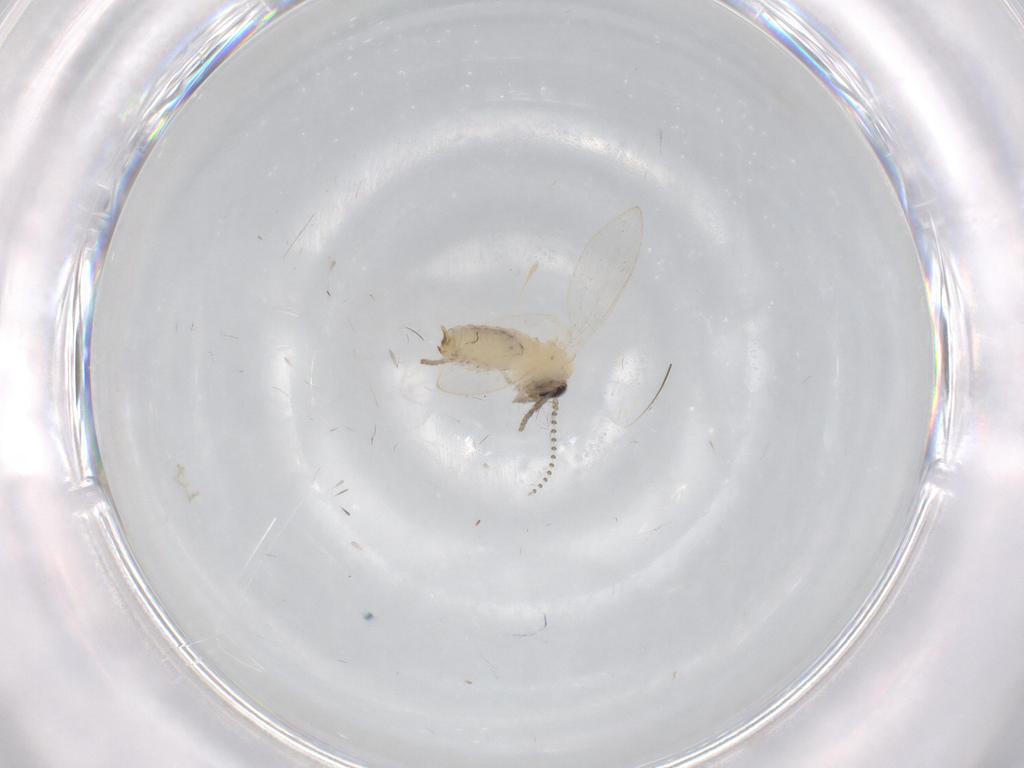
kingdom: Animalia
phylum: Arthropoda
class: Insecta
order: Diptera
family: Psychodidae
